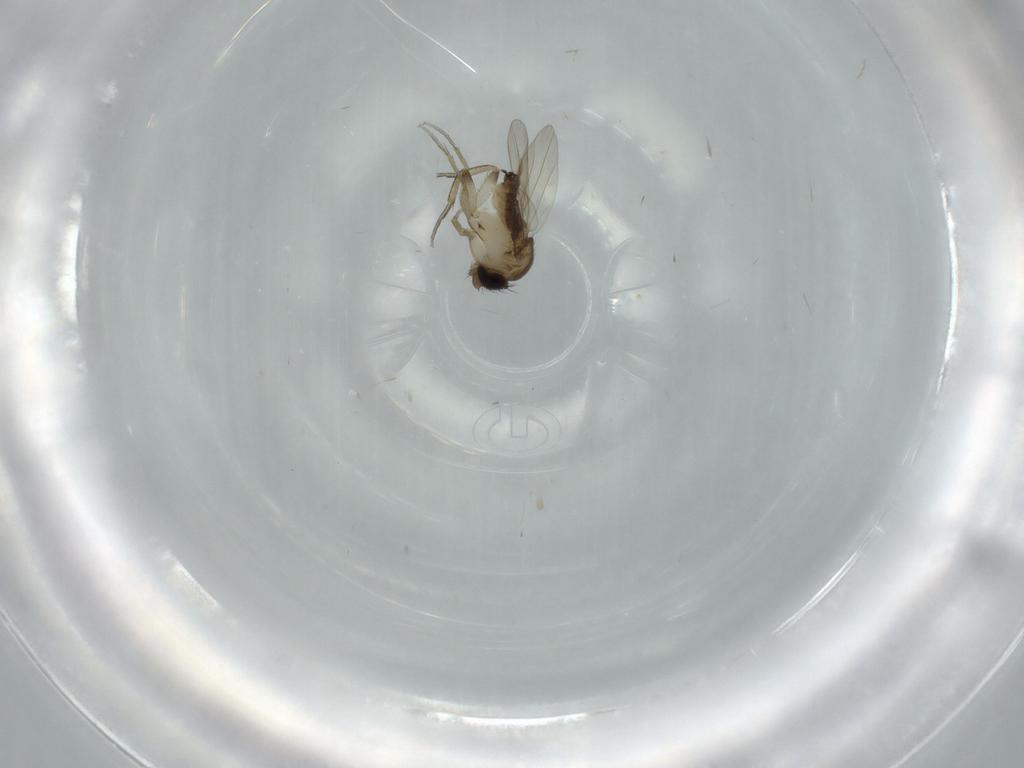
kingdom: Animalia
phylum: Arthropoda
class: Insecta
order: Diptera
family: Phoridae
